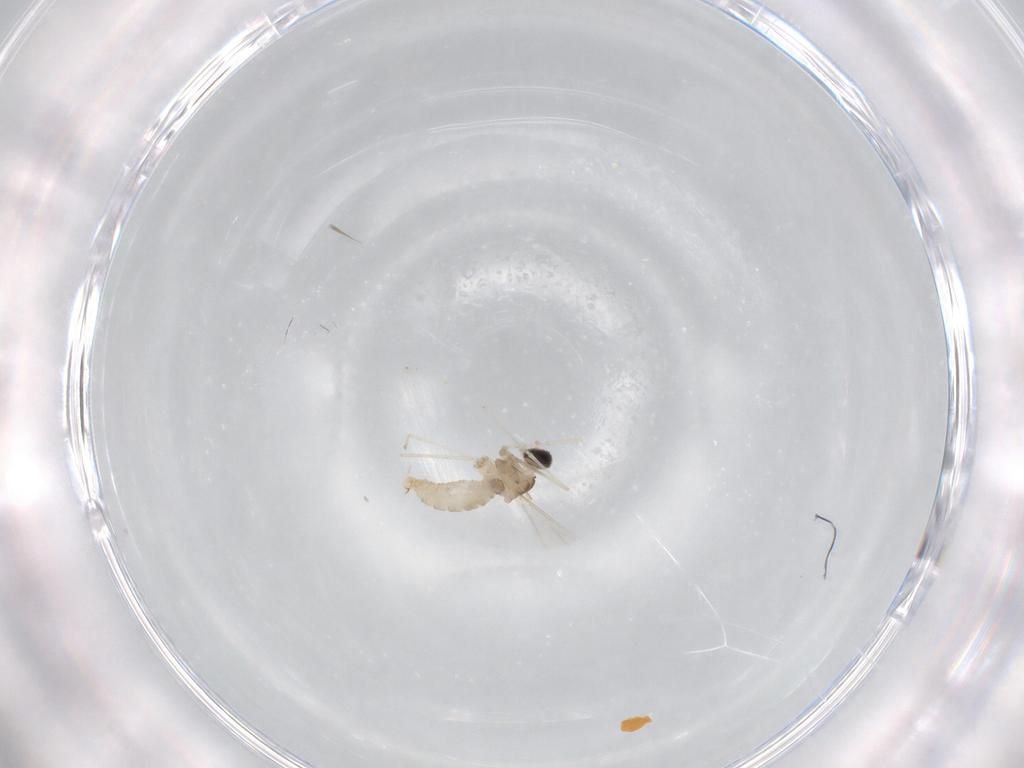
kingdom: Animalia
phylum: Arthropoda
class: Insecta
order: Diptera
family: Cecidomyiidae
